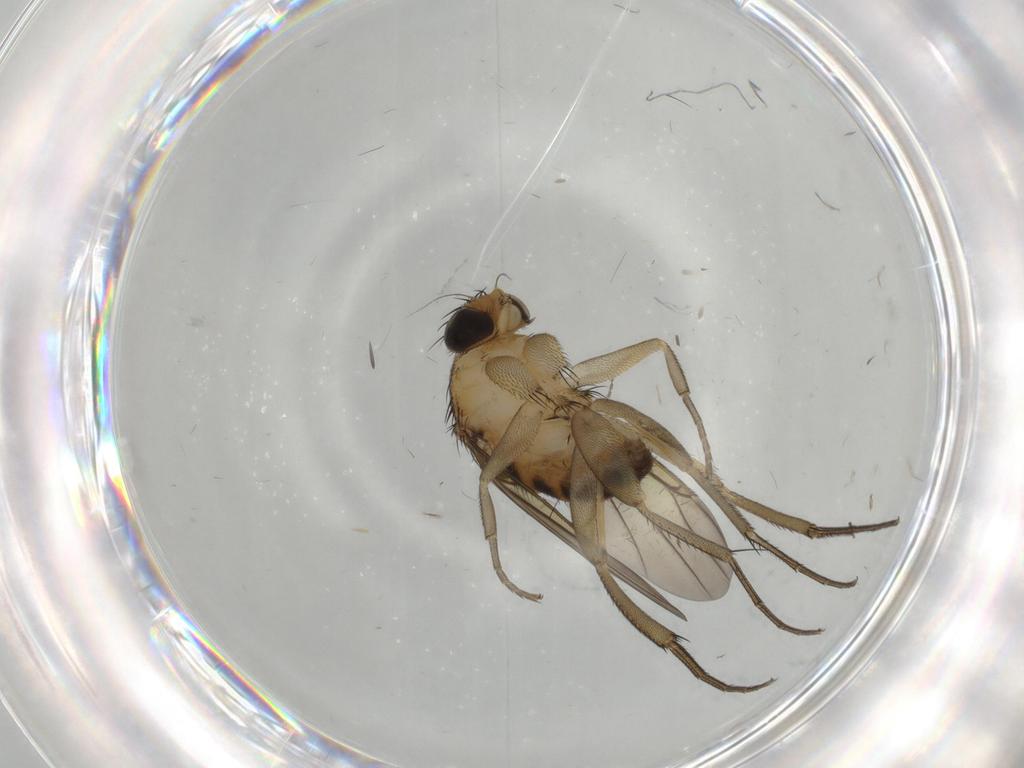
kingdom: Animalia
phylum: Arthropoda
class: Insecta
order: Diptera
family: Phoridae
